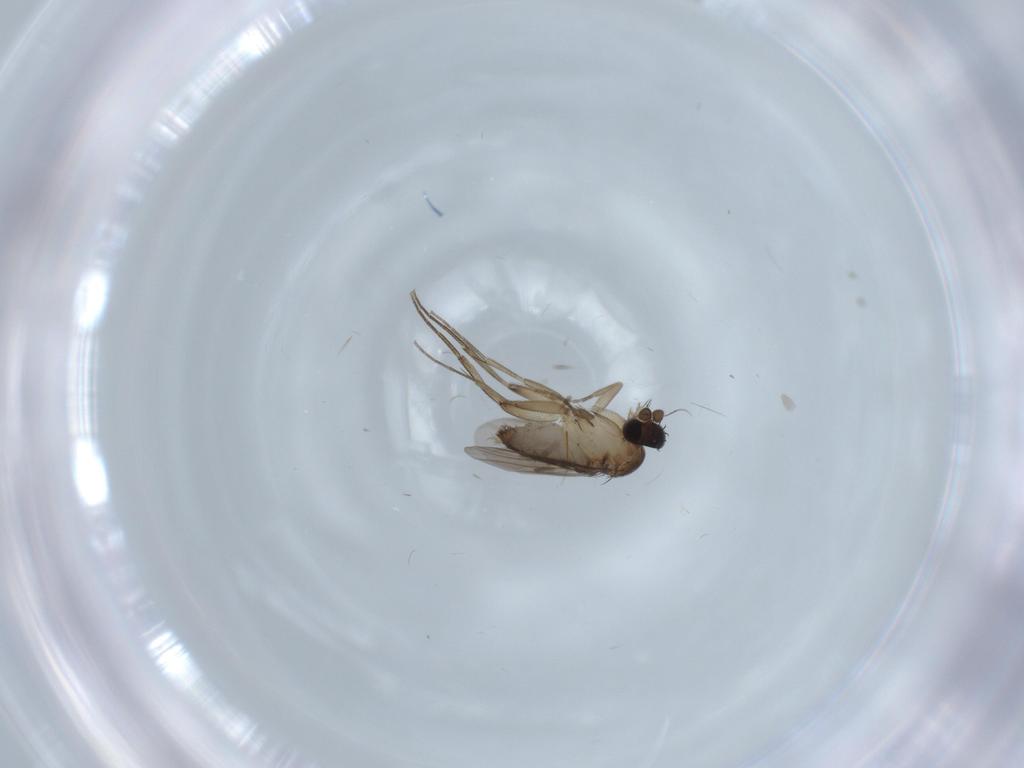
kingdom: Animalia
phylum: Arthropoda
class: Insecta
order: Diptera
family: Phoridae
